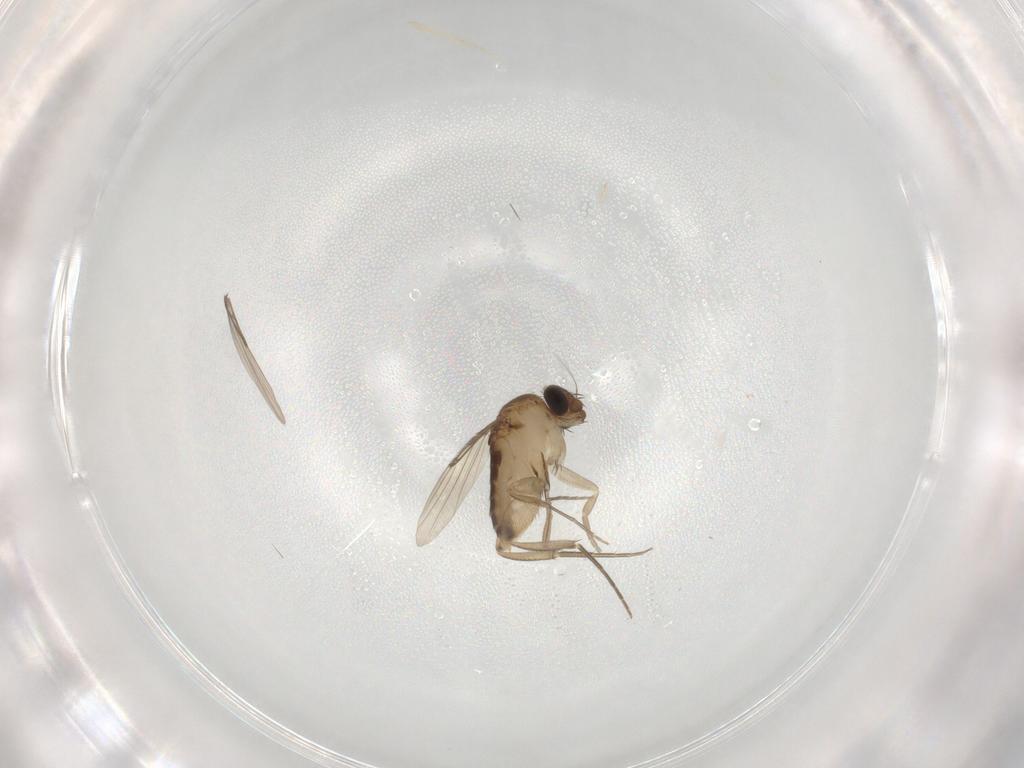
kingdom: Animalia
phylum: Arthropoda
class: Insecta
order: Diptera
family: Phoridae
